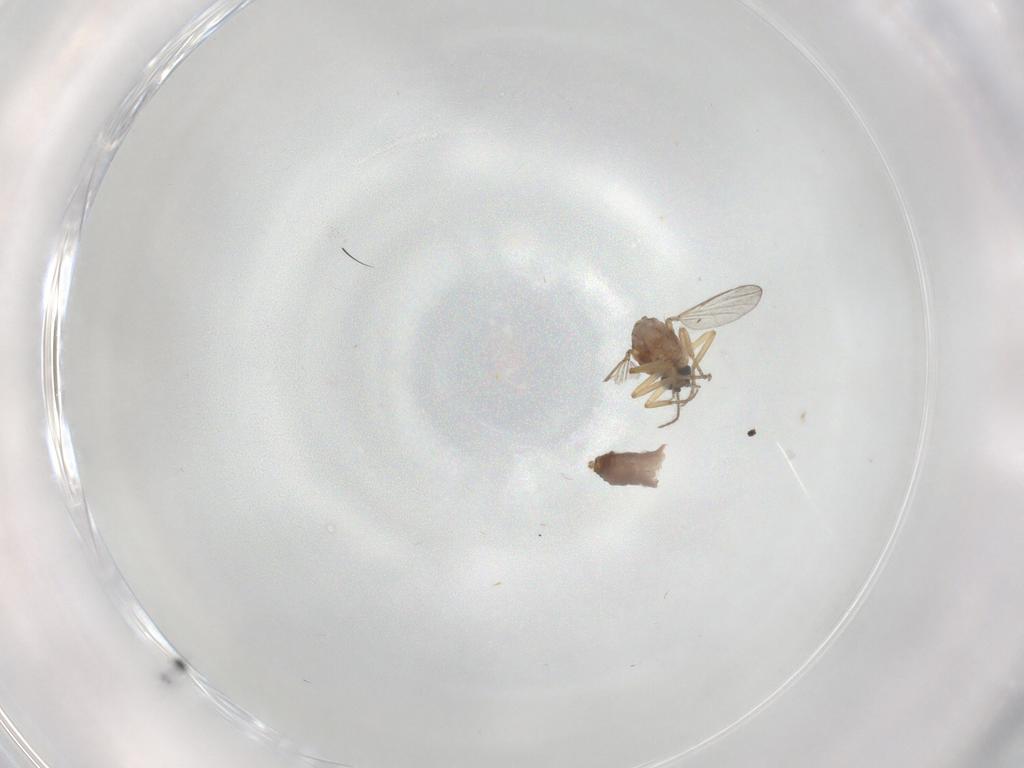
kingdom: Animalia
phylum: Arthropoda
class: Insecta
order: Diptera
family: Ceratopogonidae
